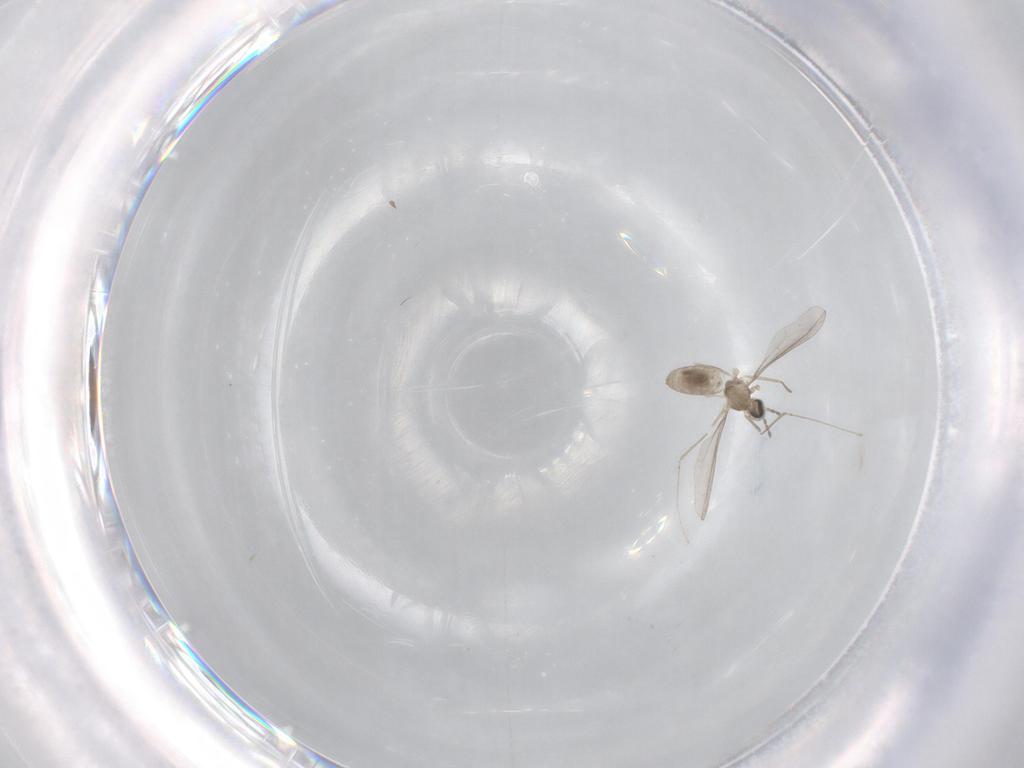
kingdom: Animalia
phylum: Arthropoda
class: Insecta
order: Diptera
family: Cecidomyiidae
